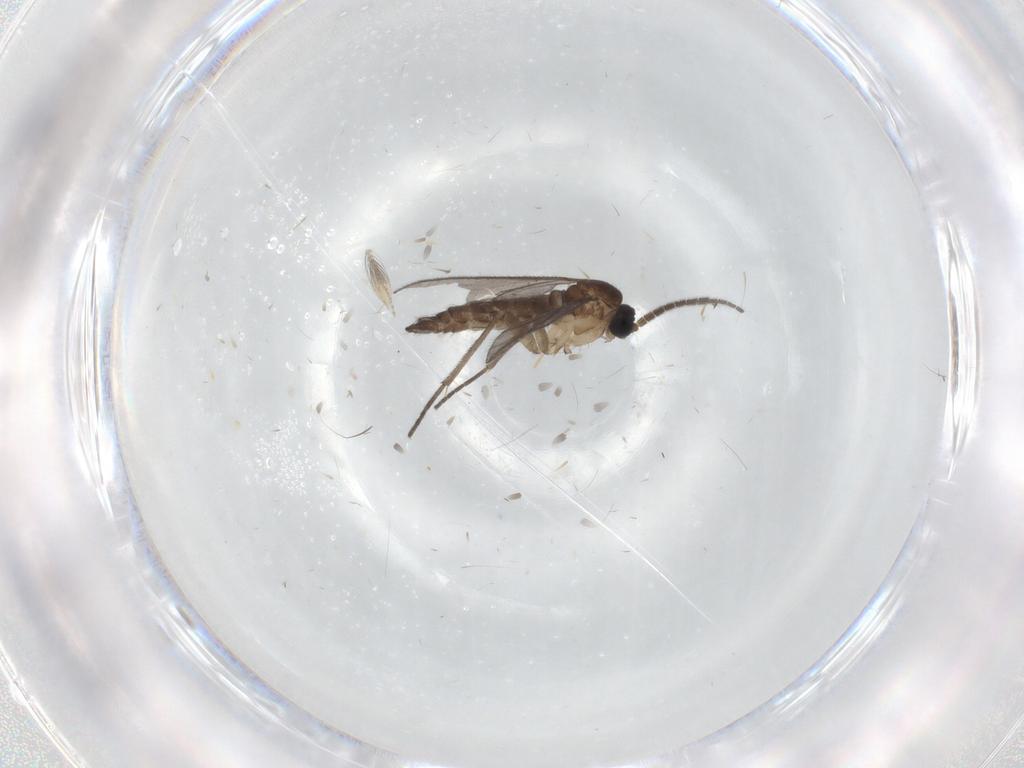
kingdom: Animalia
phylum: Arthropoda
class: Insecta
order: Diptera
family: Sciaridae
